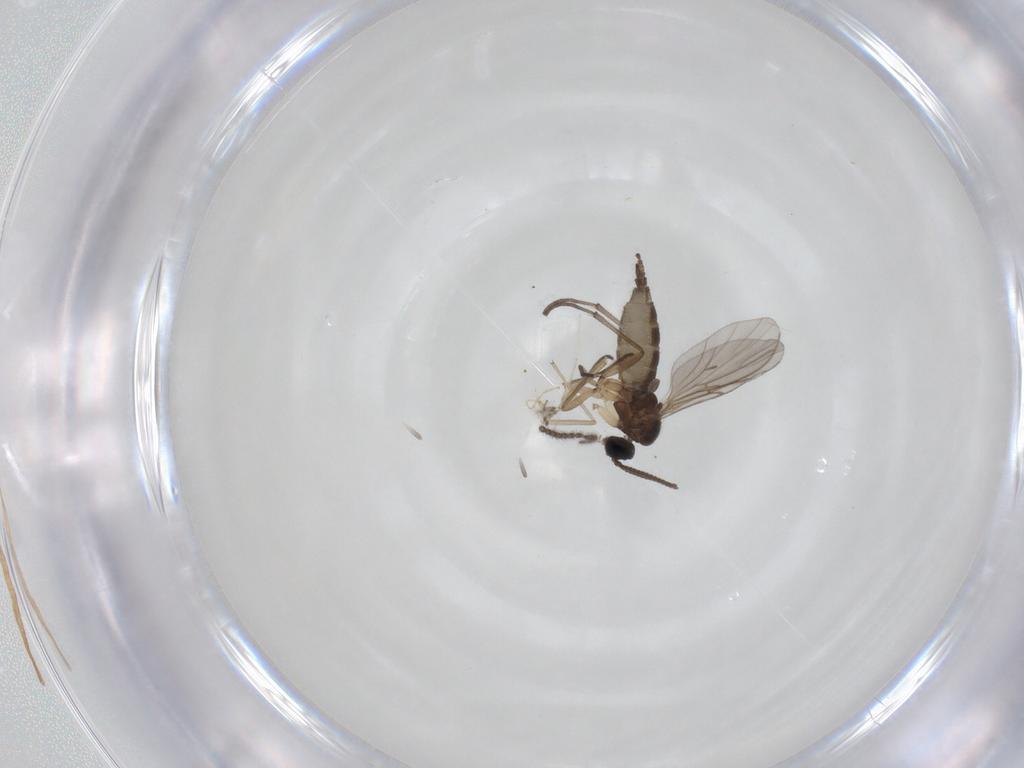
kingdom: Animalia
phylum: Arthropoda
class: Insecta
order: Diptera
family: Sciaridae
